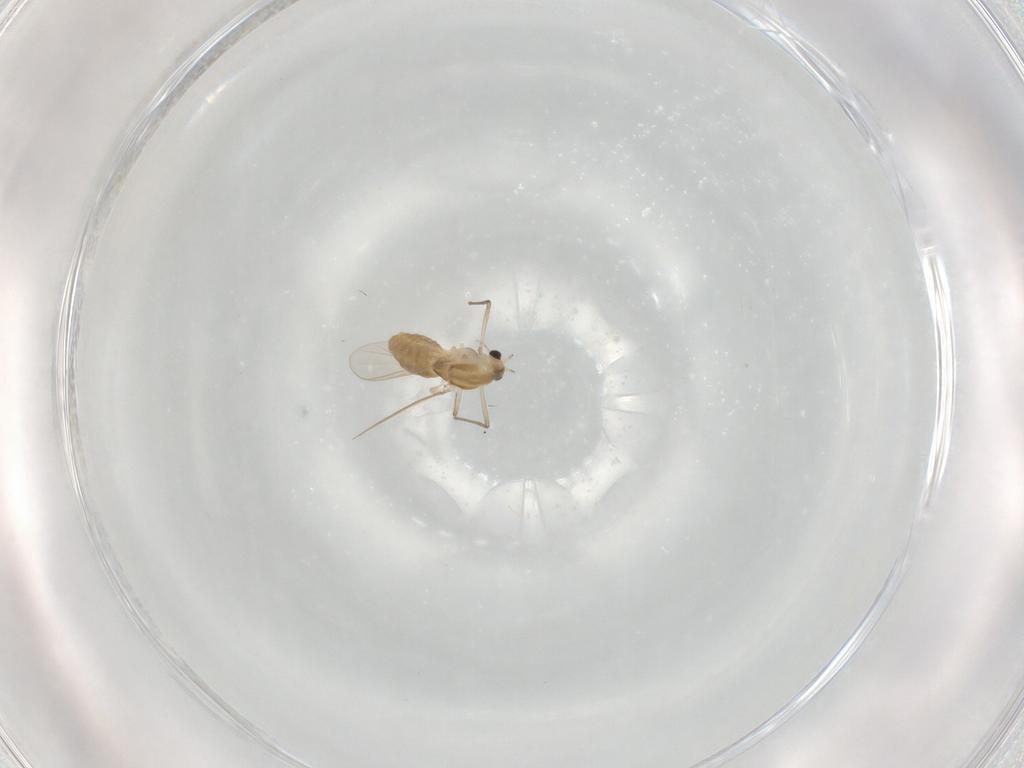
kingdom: Animalia
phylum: Arthropoda
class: Insecta
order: Diptera
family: Chironomidae
